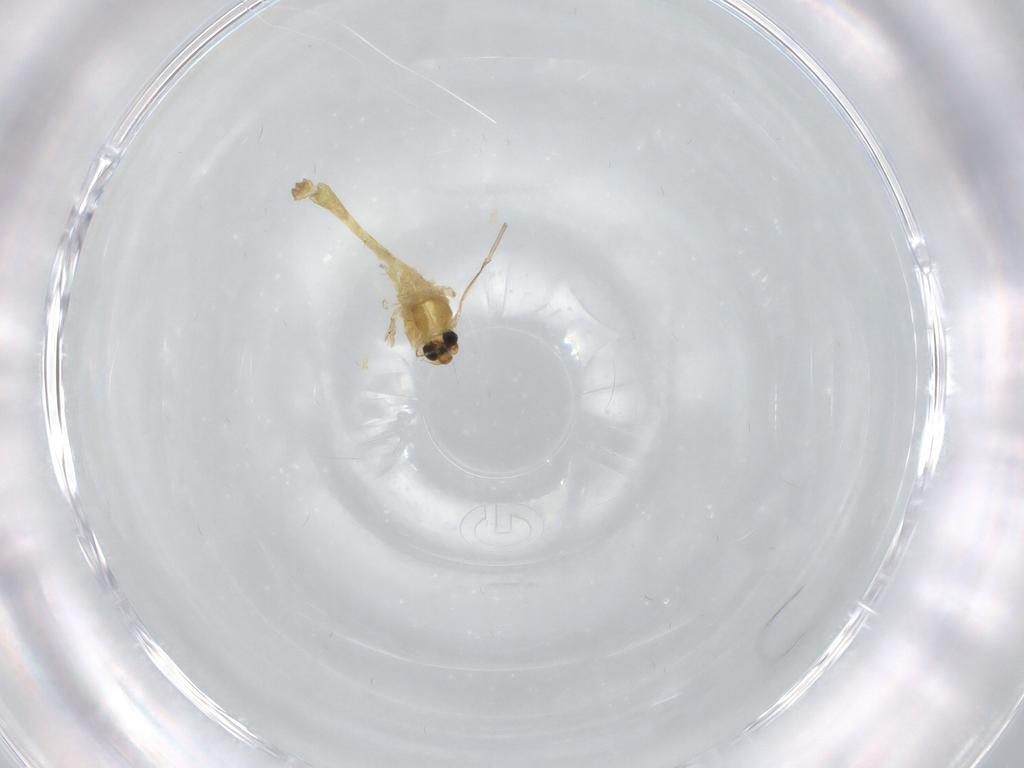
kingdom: Animalia
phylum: Arthropoda
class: Insecta
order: Diptera
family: Chironomidae
